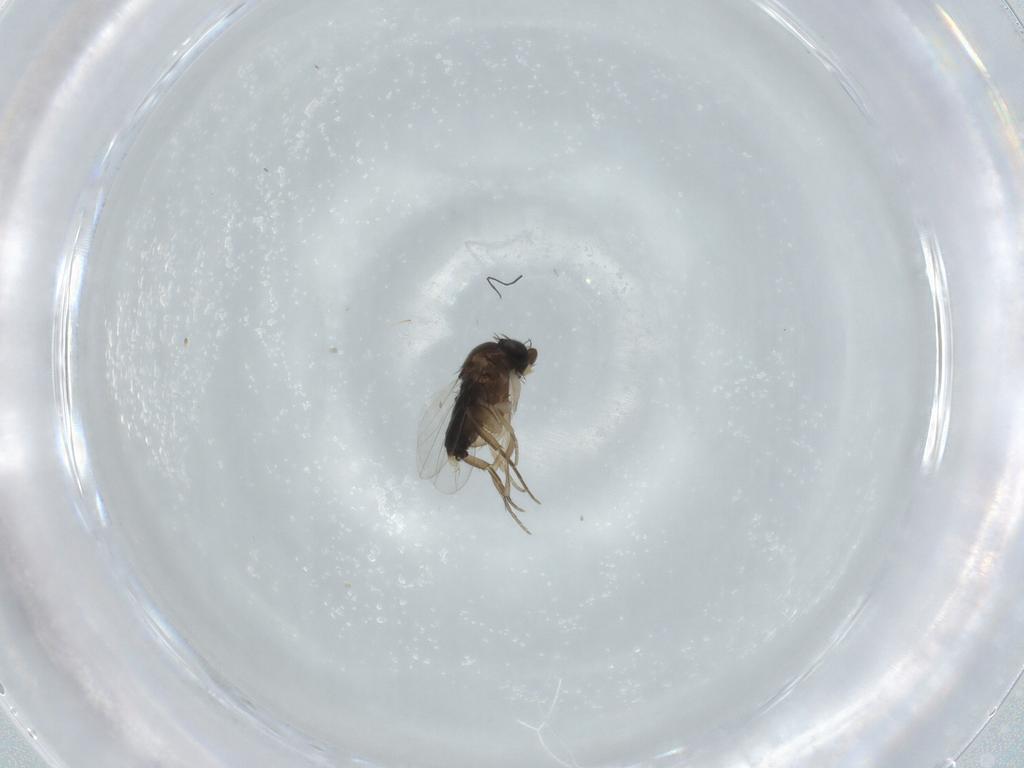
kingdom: Animalia
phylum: Arthropoda
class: Insecta
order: Diptera
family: Phoridae
